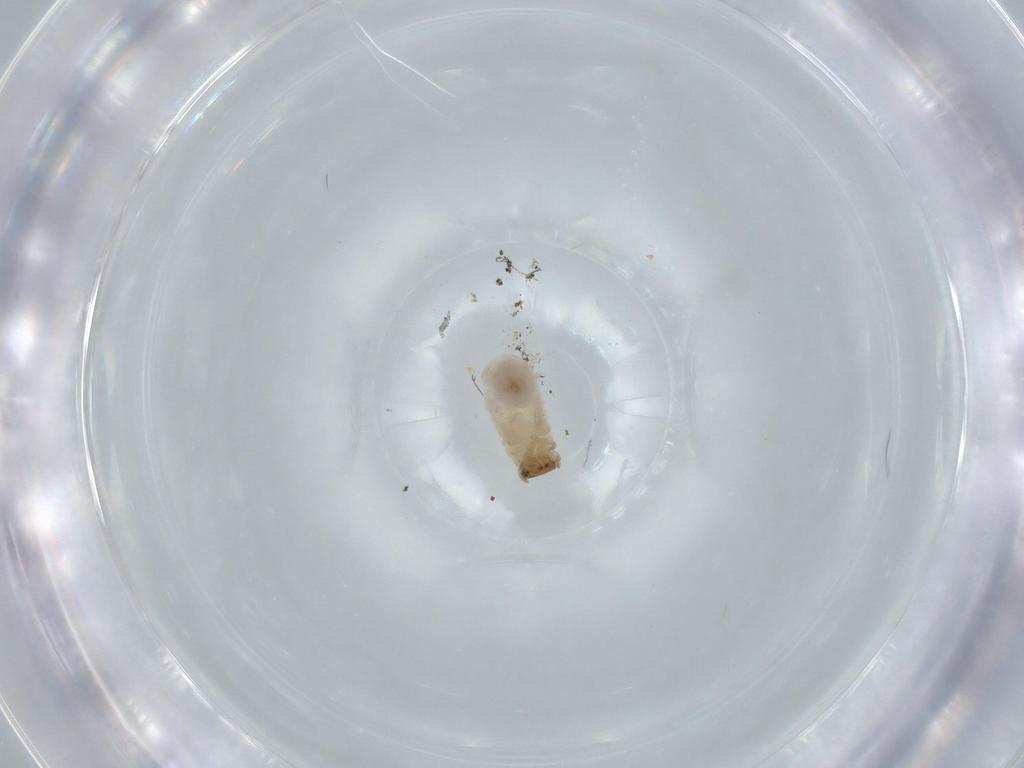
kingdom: Animalia
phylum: Arthropoda
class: Insecta
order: Coleoptera
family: Chrysomelidae
